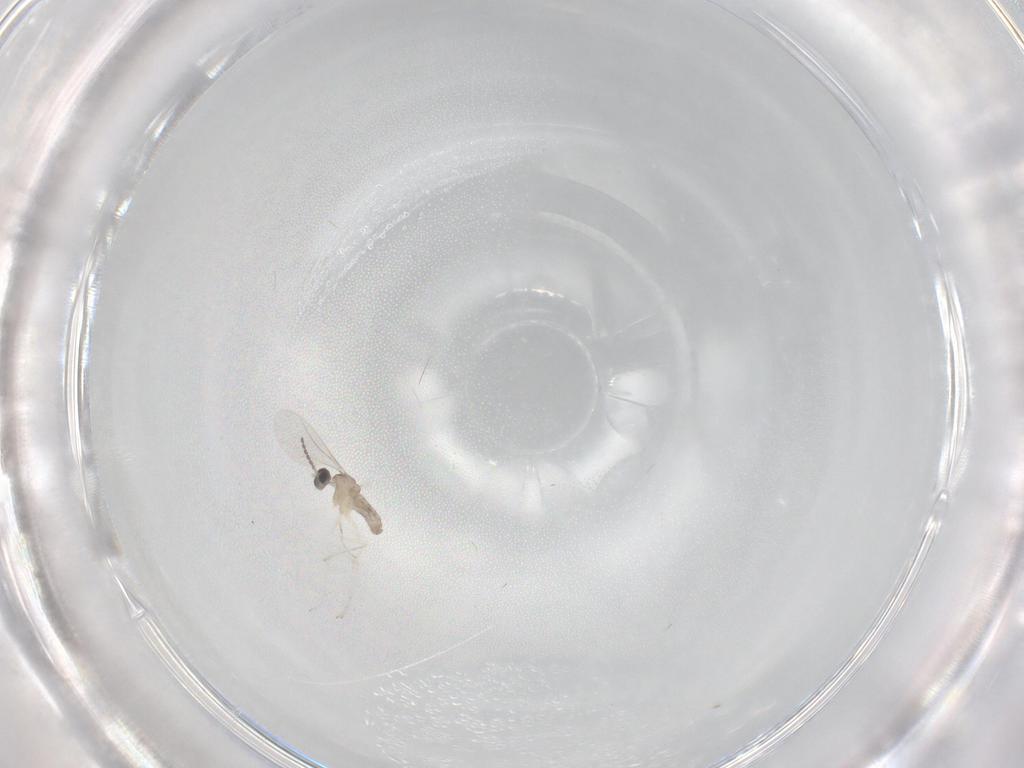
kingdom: Animalia
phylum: Arthropoda
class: Insecta
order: Diptera
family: Cecidomyiidae
